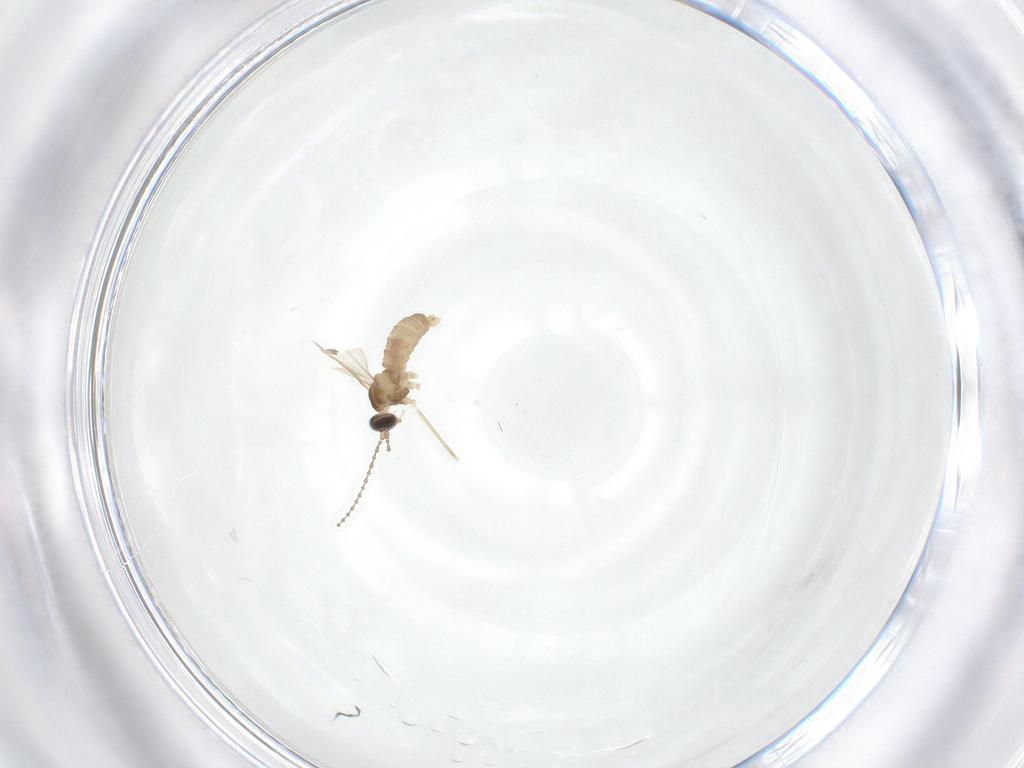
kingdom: Animalia
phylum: Arthropoda
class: Insecta
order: Diptera
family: Cecidomyiidae
